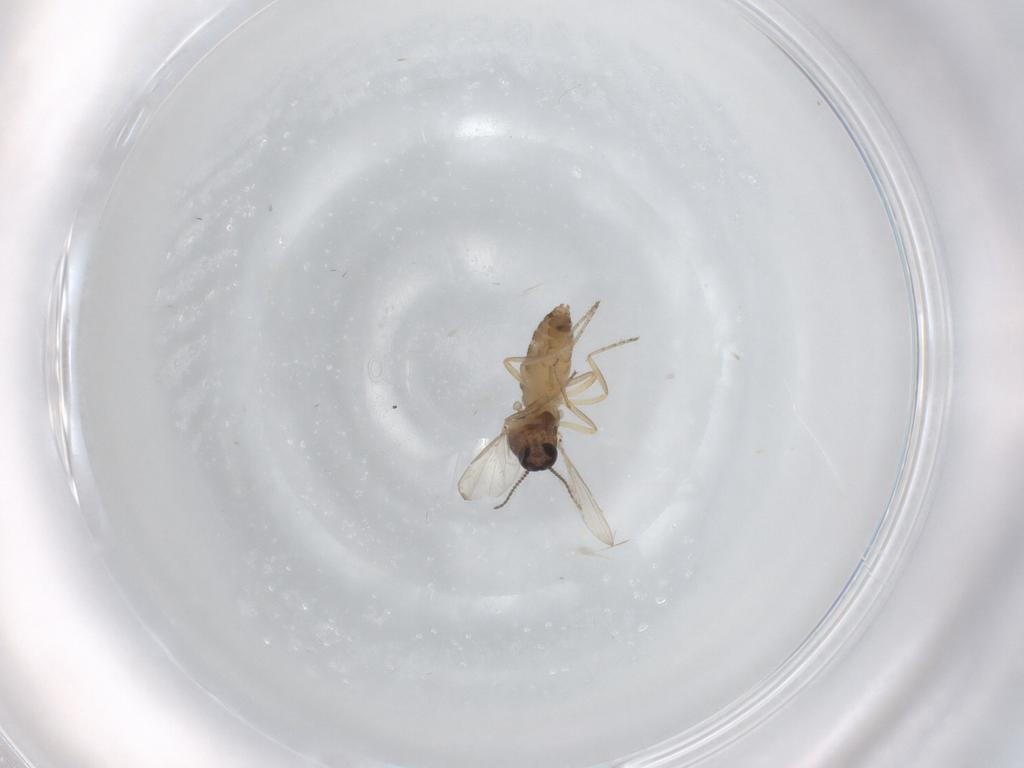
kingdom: Animalia
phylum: Arthropoda
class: Insecta
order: Diptera
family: Ceratopogonidae
